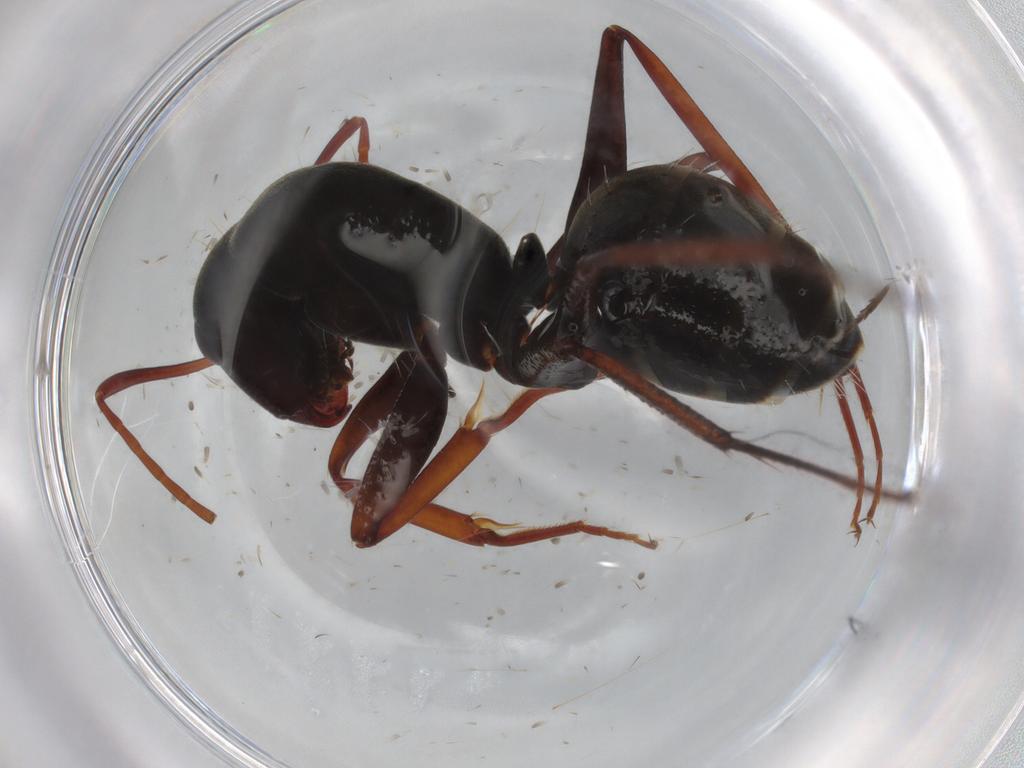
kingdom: Animalia
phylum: Arthropoda
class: Insecta
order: Hymenoptera
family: Formicidae
